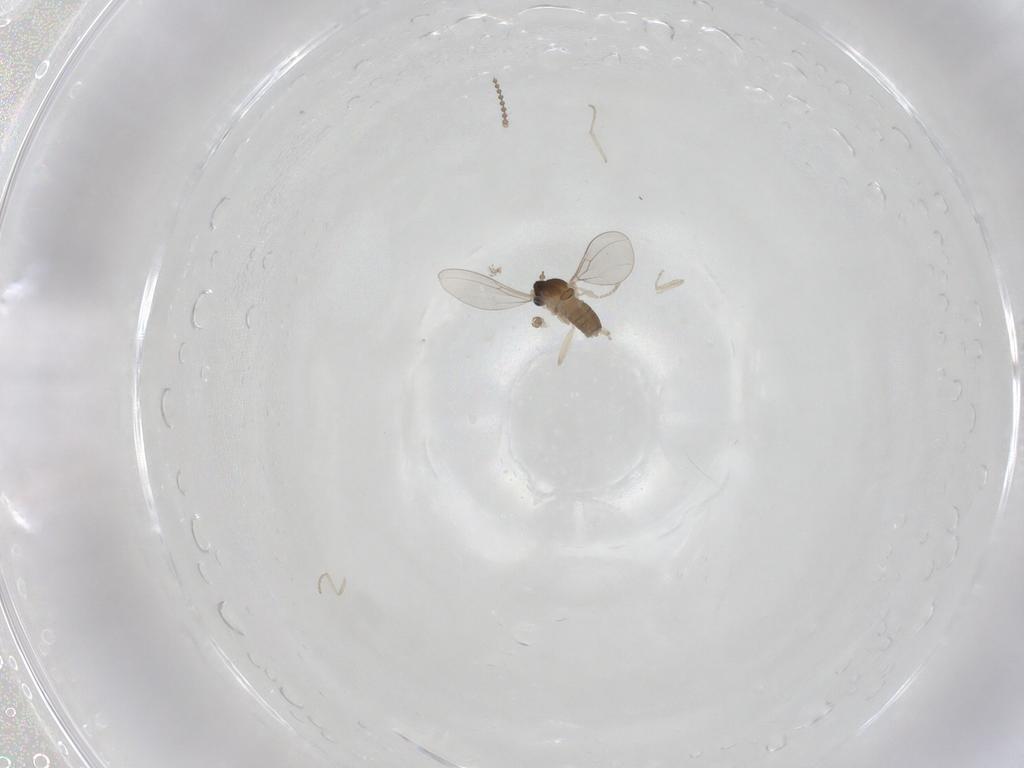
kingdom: Animalia
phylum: Arthropoda
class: Insecta
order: Diptera
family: Cecidomyiidae
